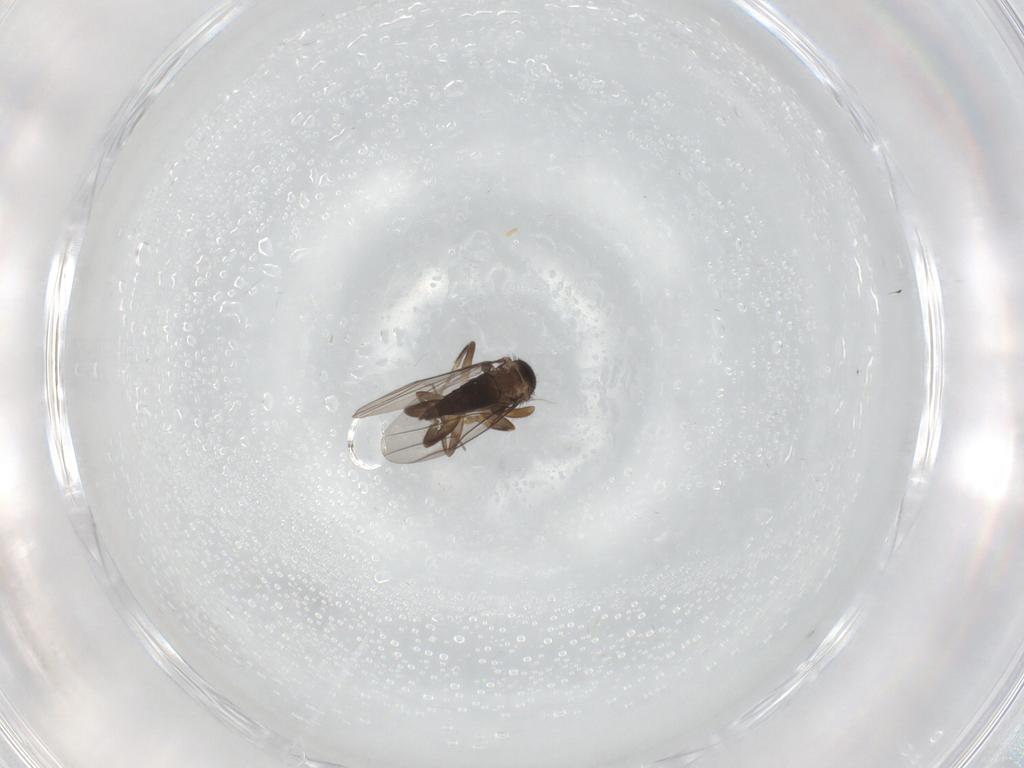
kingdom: Animalia
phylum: Arthropoda
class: Insecta
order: Diptera
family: Sphaeroceridae
